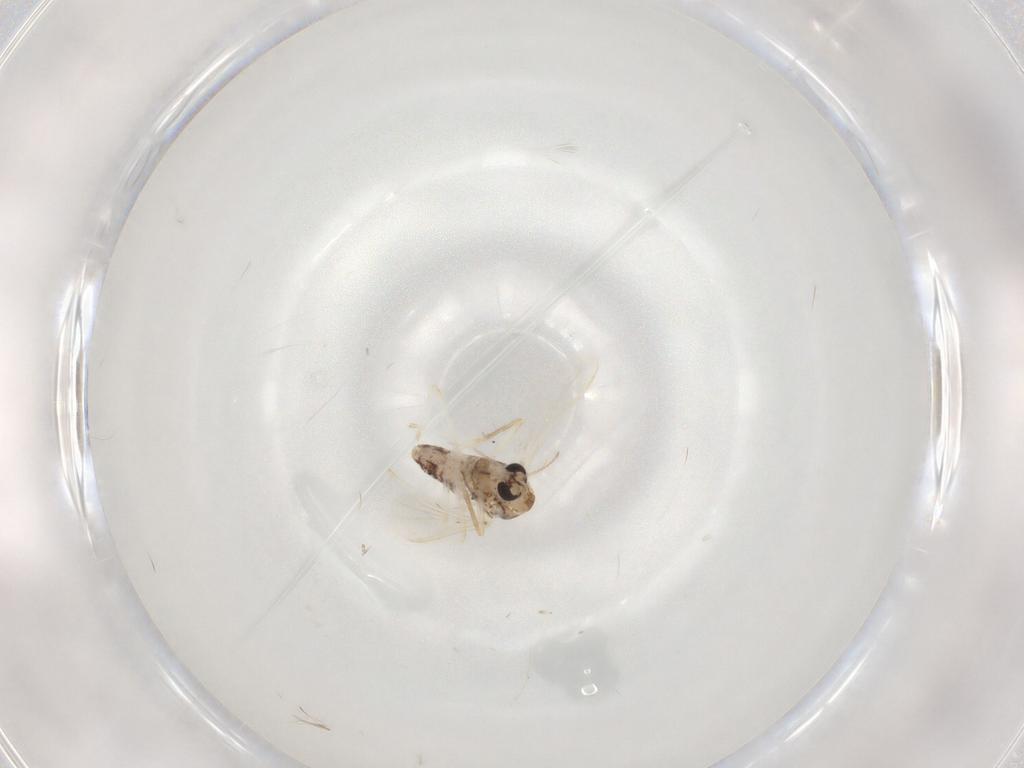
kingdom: Animalia
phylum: Arthropoda
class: Insecta
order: Diptera
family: Chironomidae
